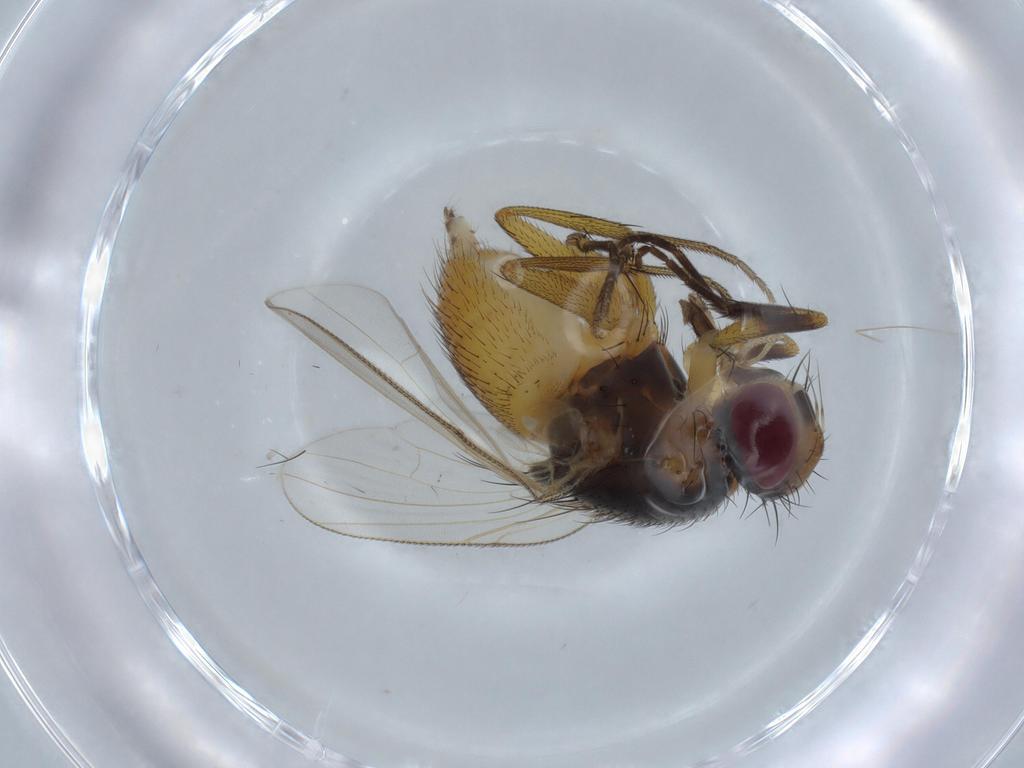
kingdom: Animalia
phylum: Arthropoda
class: Insecta
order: Diptera
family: Muscidae
